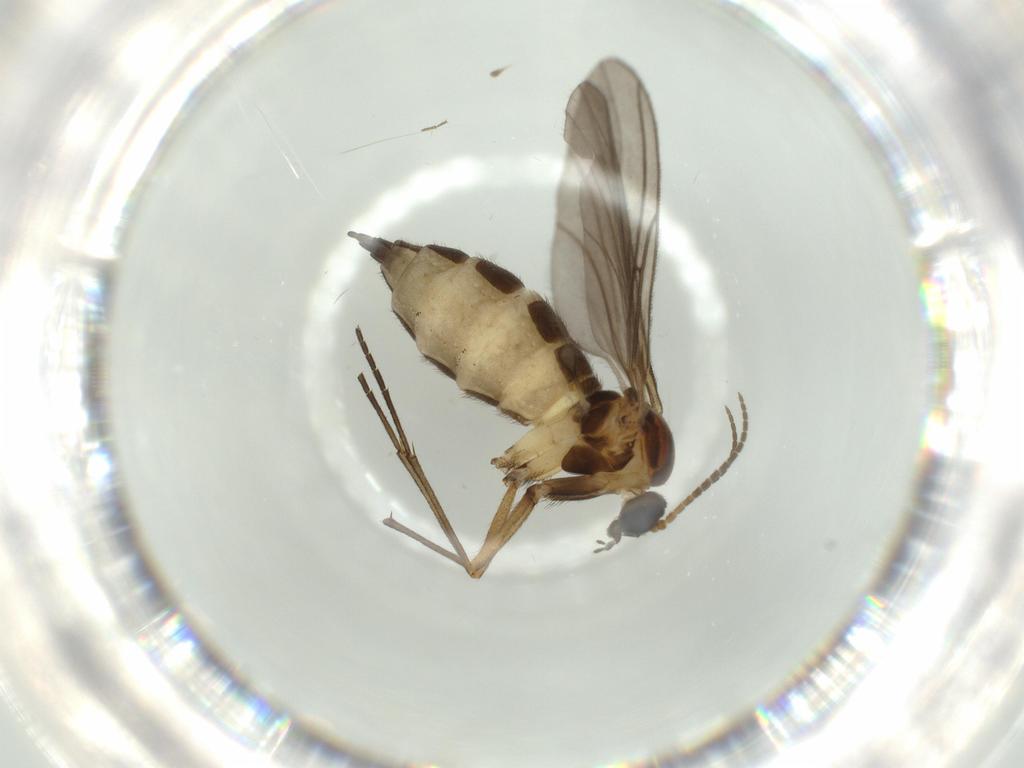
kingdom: Animalia
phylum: Arthropoda
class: Insecta
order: Diptera
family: Sciaridae
